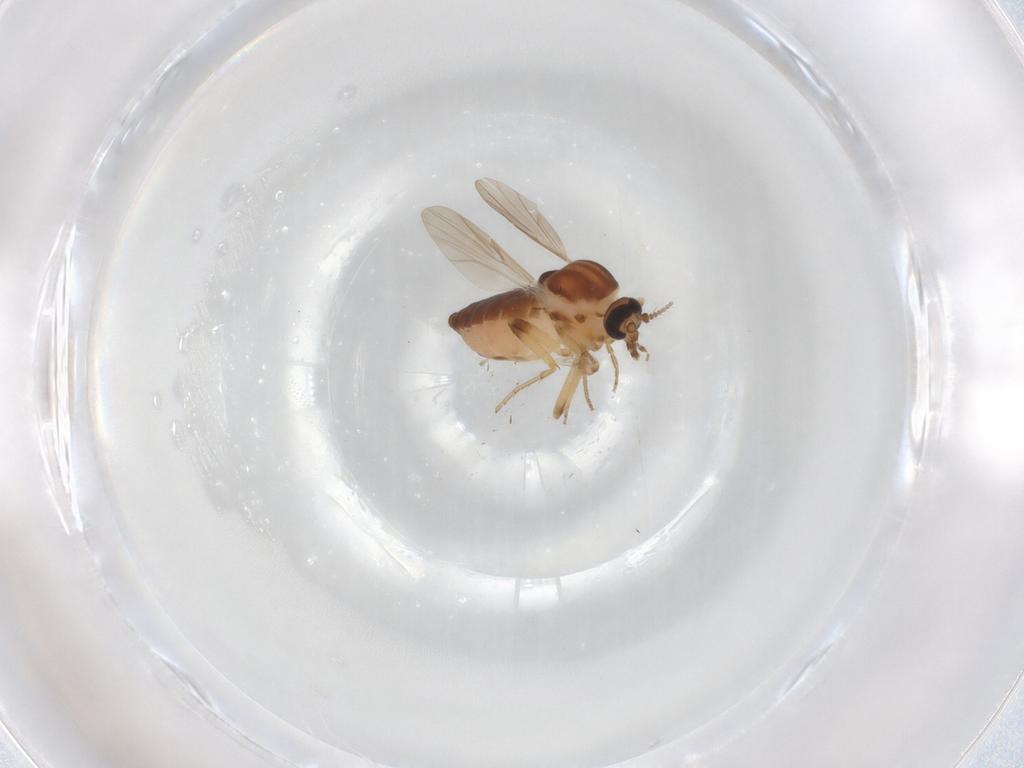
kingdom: Animalia
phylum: Arthropoda
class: Insecta
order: Diptera
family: Ceratopogonidae
